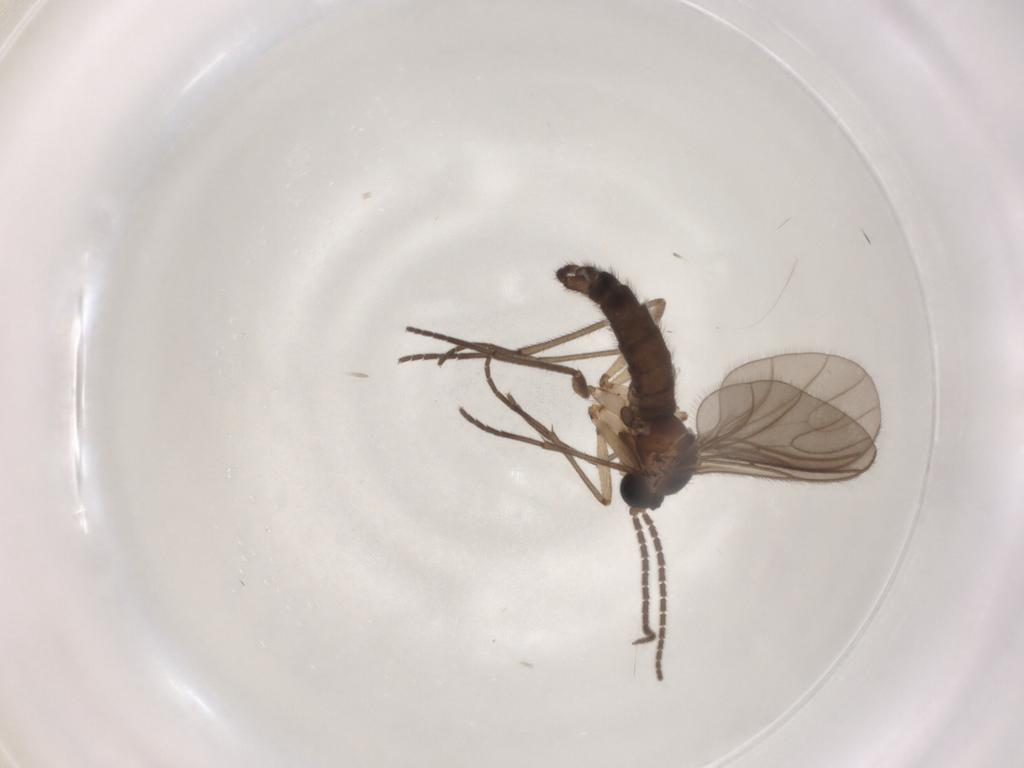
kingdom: Animalia
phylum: Arthropoda
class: Insecta
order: Diptera
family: Sciaridae
